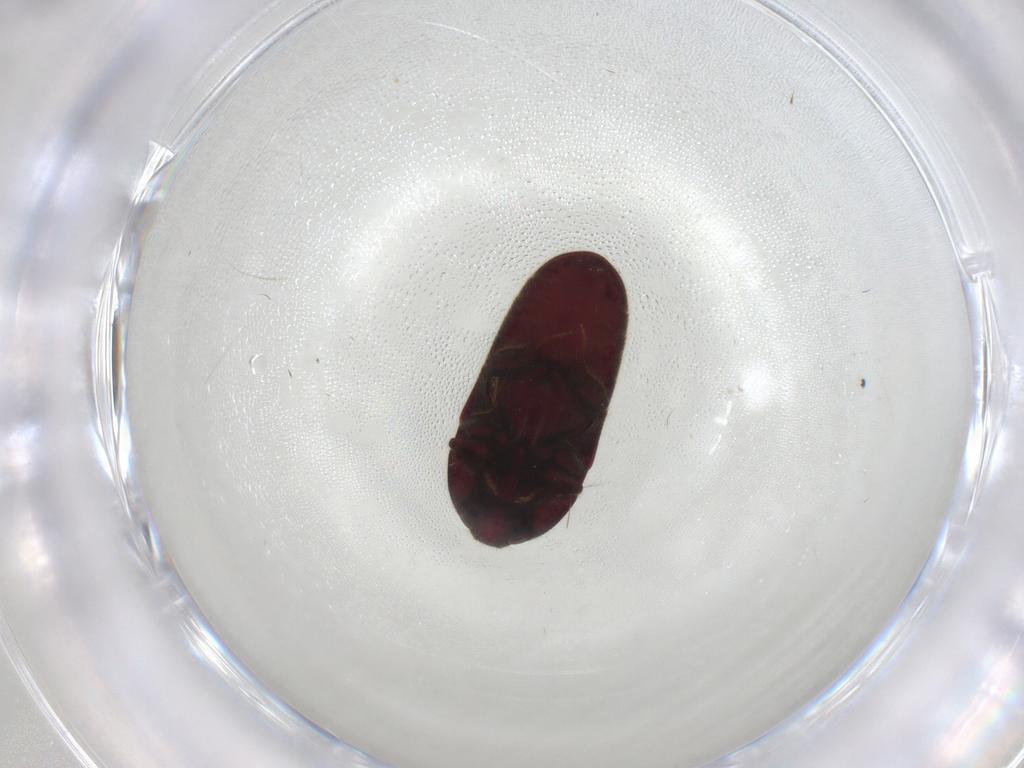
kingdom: Animalia
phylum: Arthropoda
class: Insecta
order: Coleoptera
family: Throscidae
